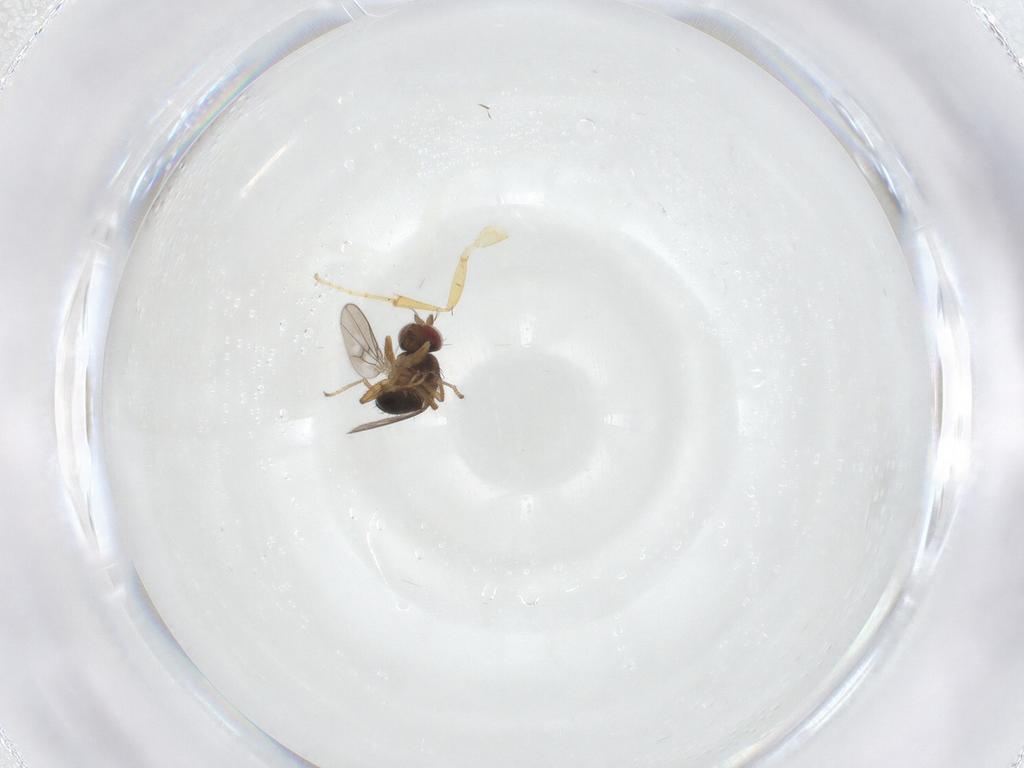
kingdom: Animalia
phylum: Arthropoda
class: Insecta
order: Diptera
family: Ephydridae
